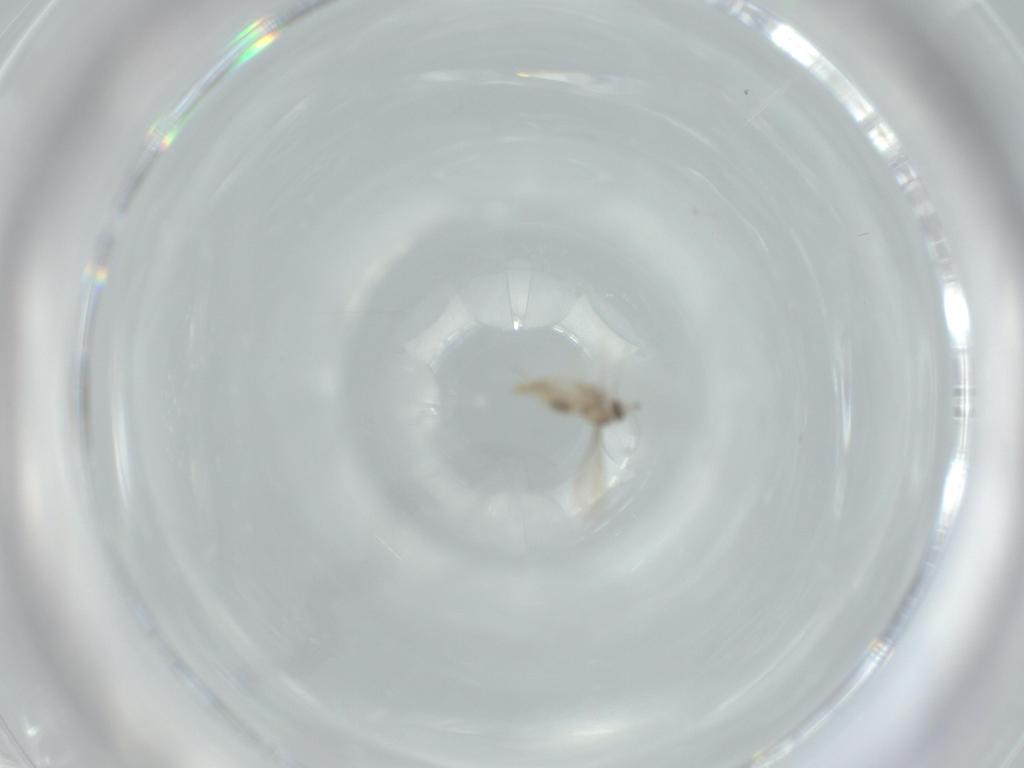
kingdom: Animalia
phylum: Arthropoda
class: Insecta
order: Diptera
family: Cecidomyiidae
